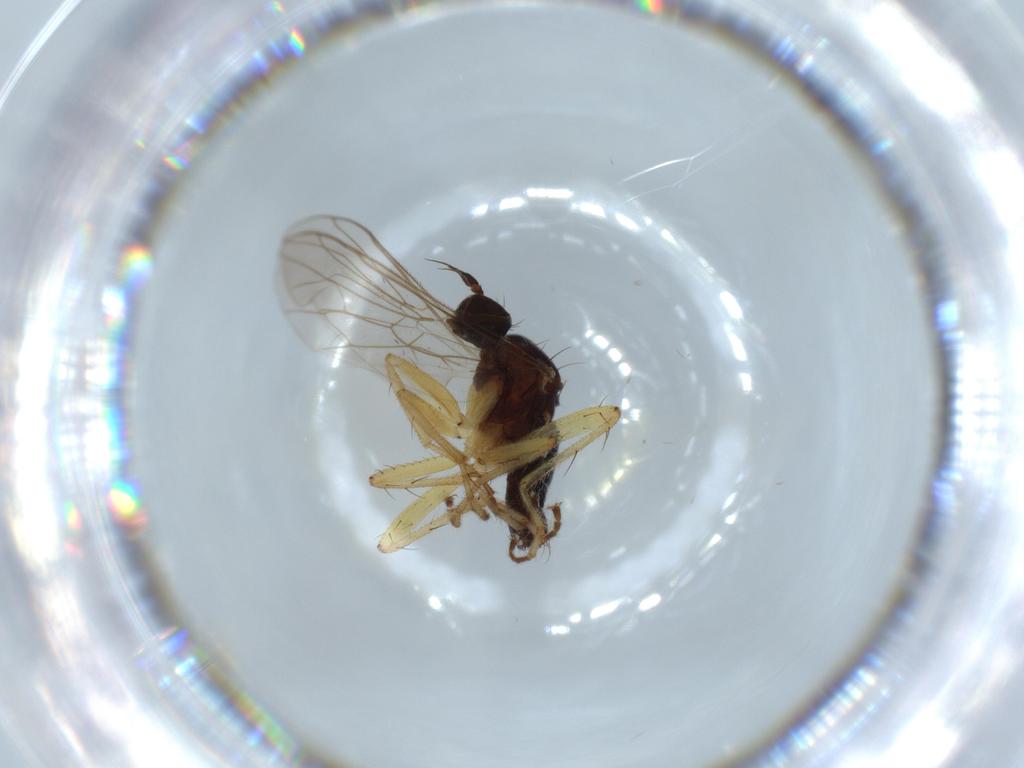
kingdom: Animalia
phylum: Arthropoda
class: Insecta
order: Diptera
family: Hybotidae
